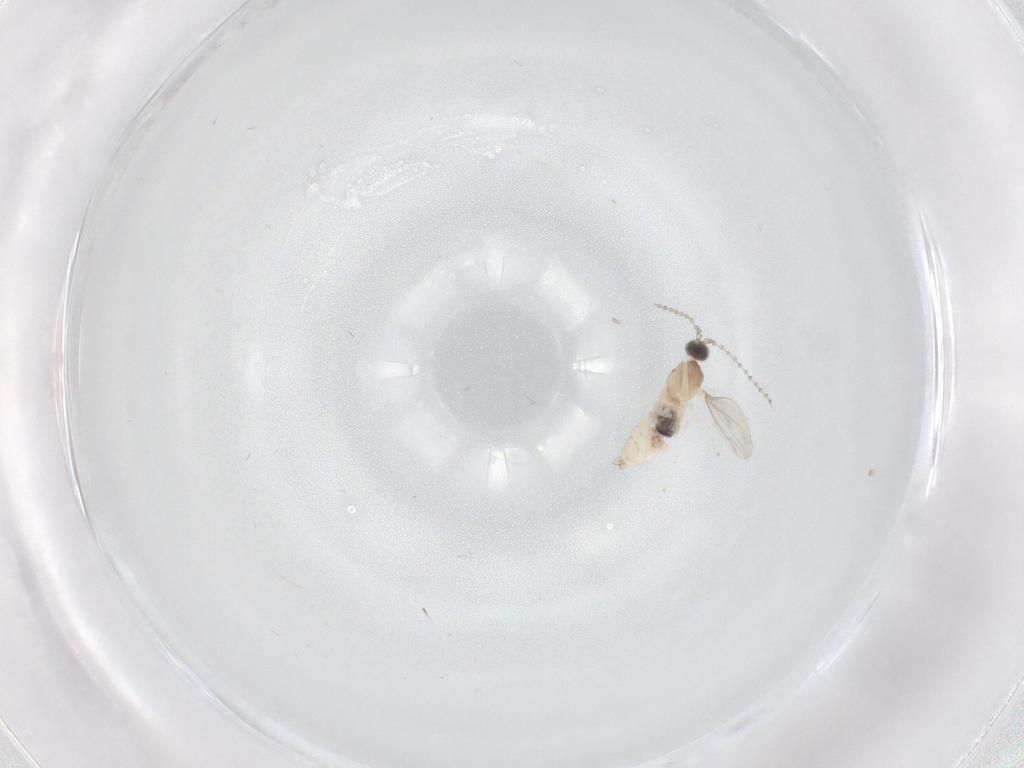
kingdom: Animalia
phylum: Arthropoda
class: Insecta
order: Diptera
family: Cecidomyiidae
